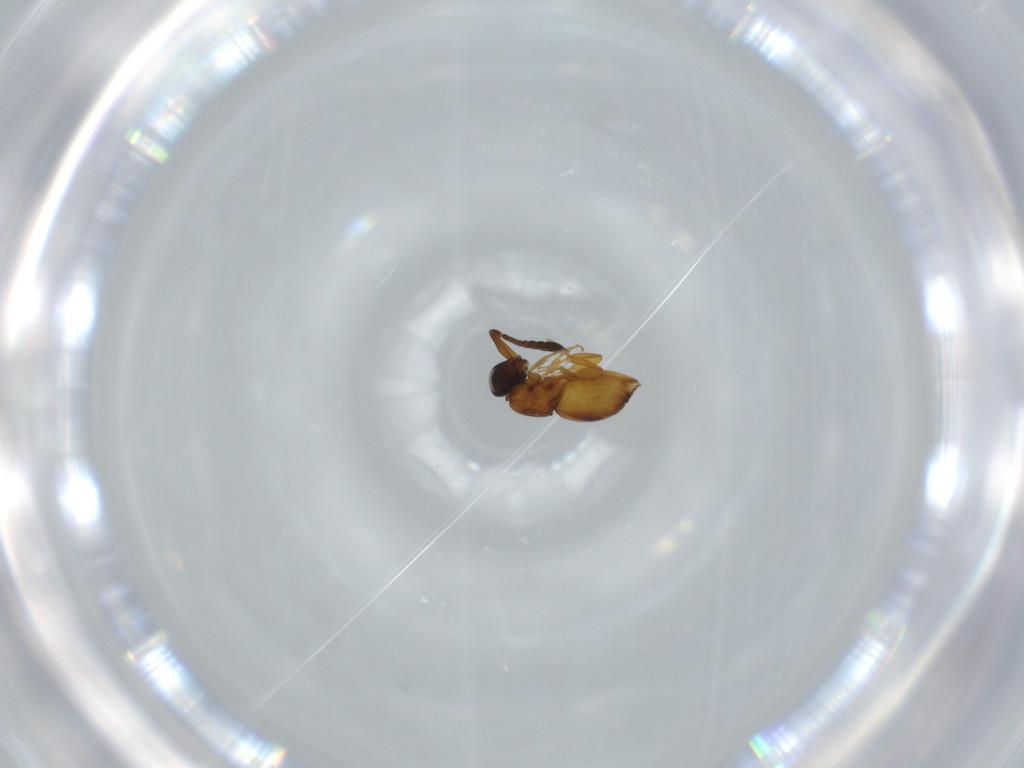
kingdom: Animalia
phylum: Arthropoda
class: Insecta
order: Hymenoptera
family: Ceraphronidae
